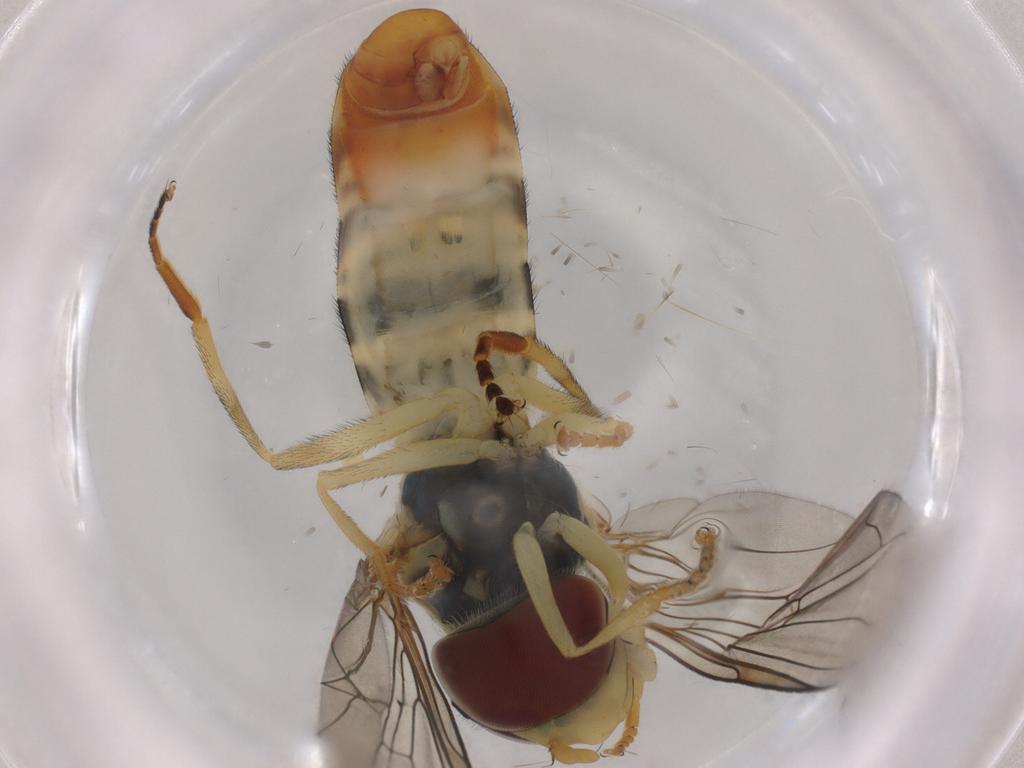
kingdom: Animalia
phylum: Arthropoda
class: Insecta
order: Diptera
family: Syrphidae
